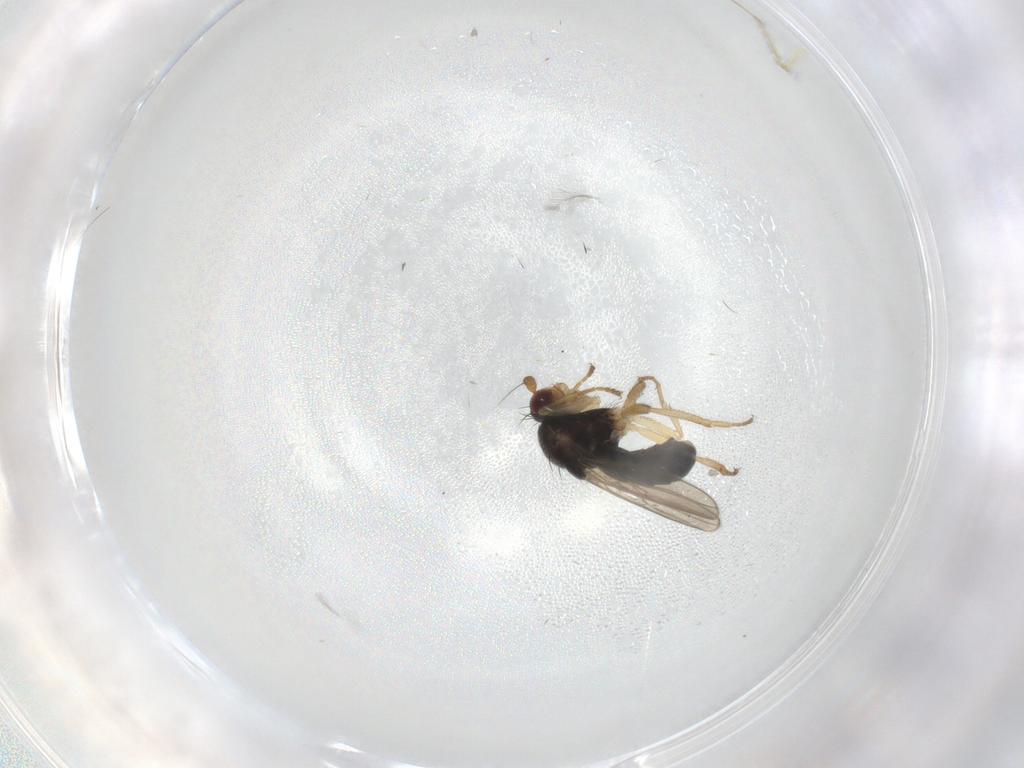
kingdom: Animalia
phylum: Arthropoda
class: Insecta
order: Diptera
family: Chironomidae
